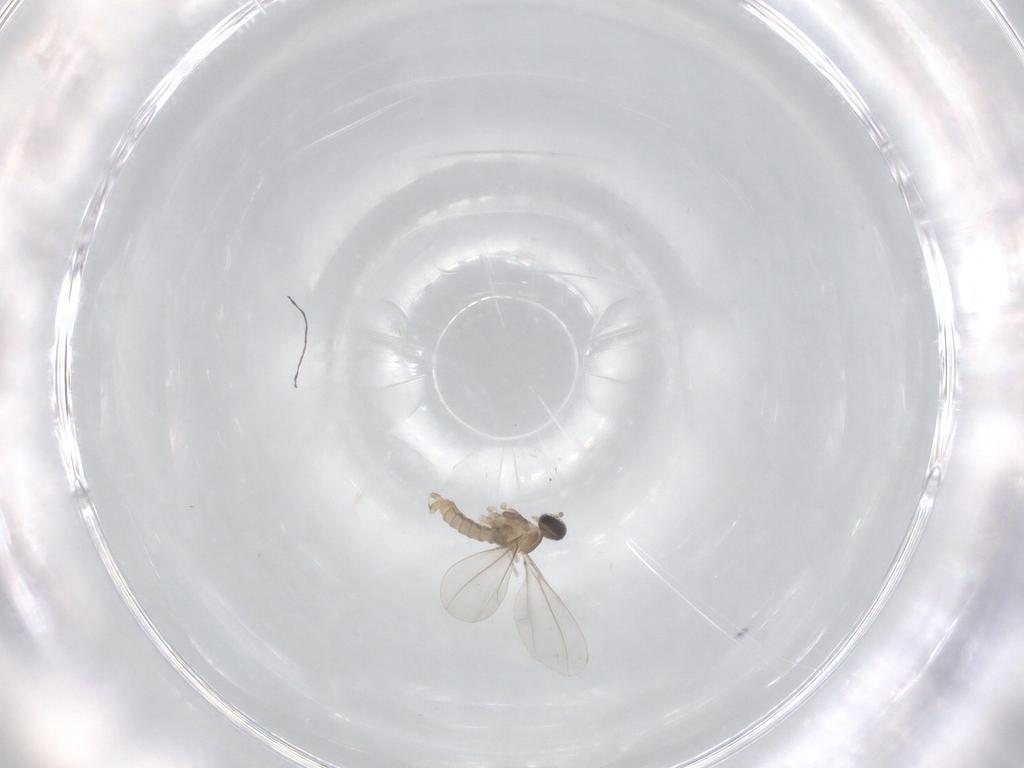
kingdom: Animalia
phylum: Arthropoda
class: Insecta
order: Diptera
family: Cecidomyiidae
